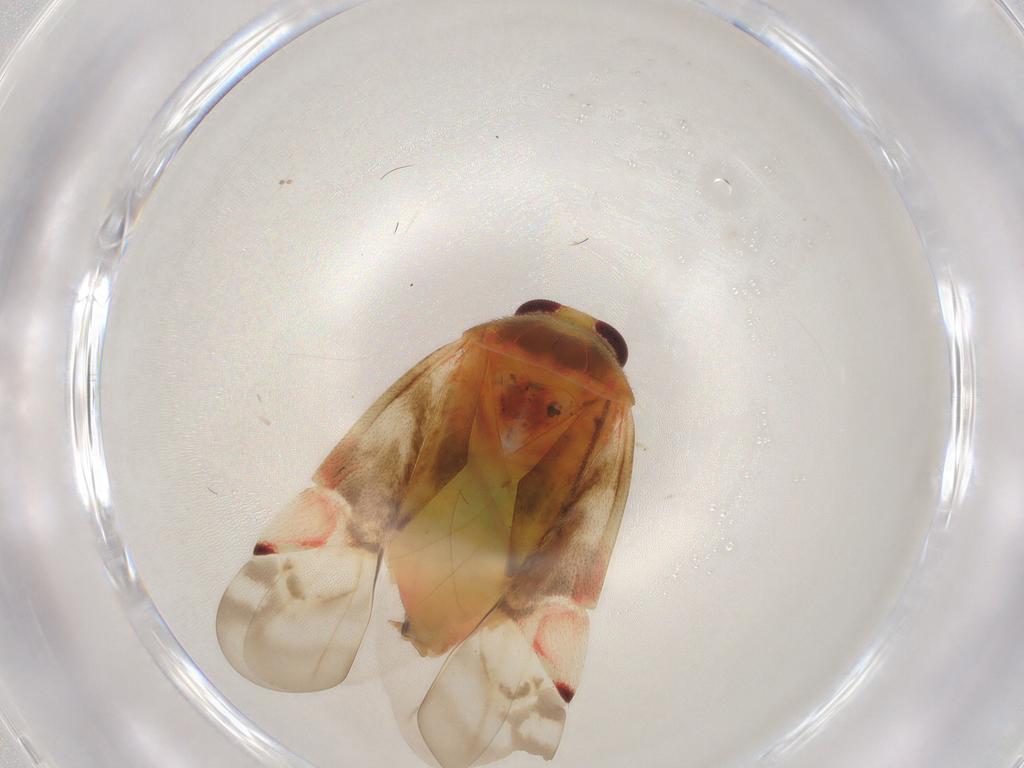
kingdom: Animalia
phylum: Arthropoda
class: Insecta
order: Hemiptera
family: Miridae
